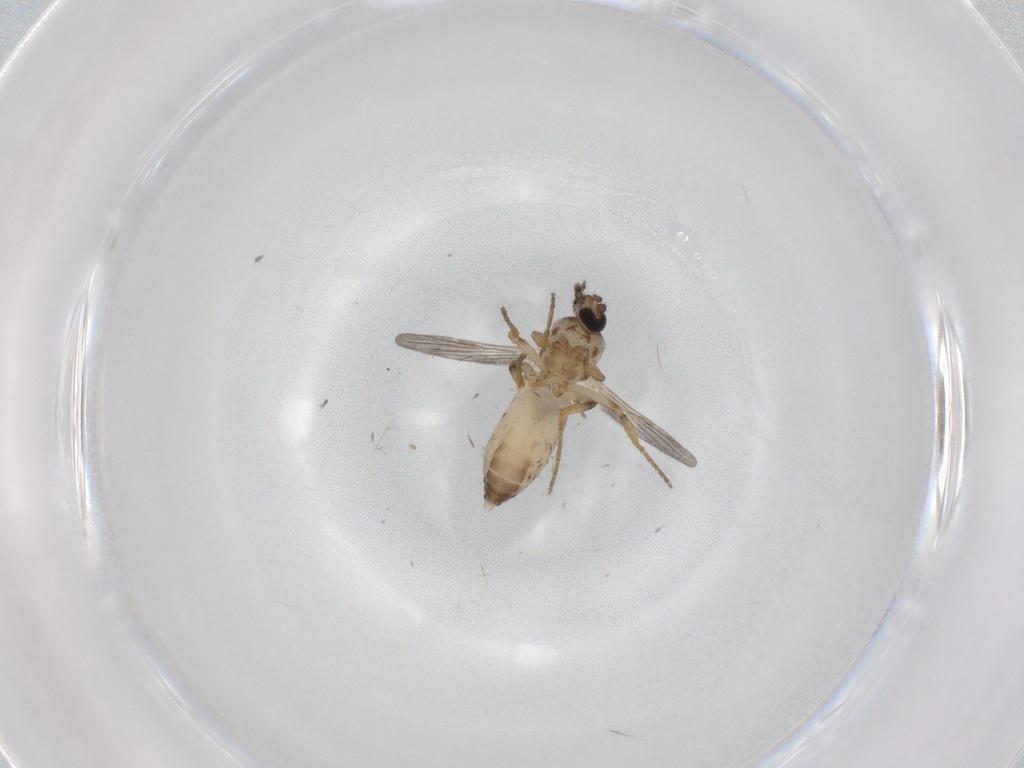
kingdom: Animalia
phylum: Arthropoda
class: Insecta
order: Diptera
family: Ceratopogonidae
